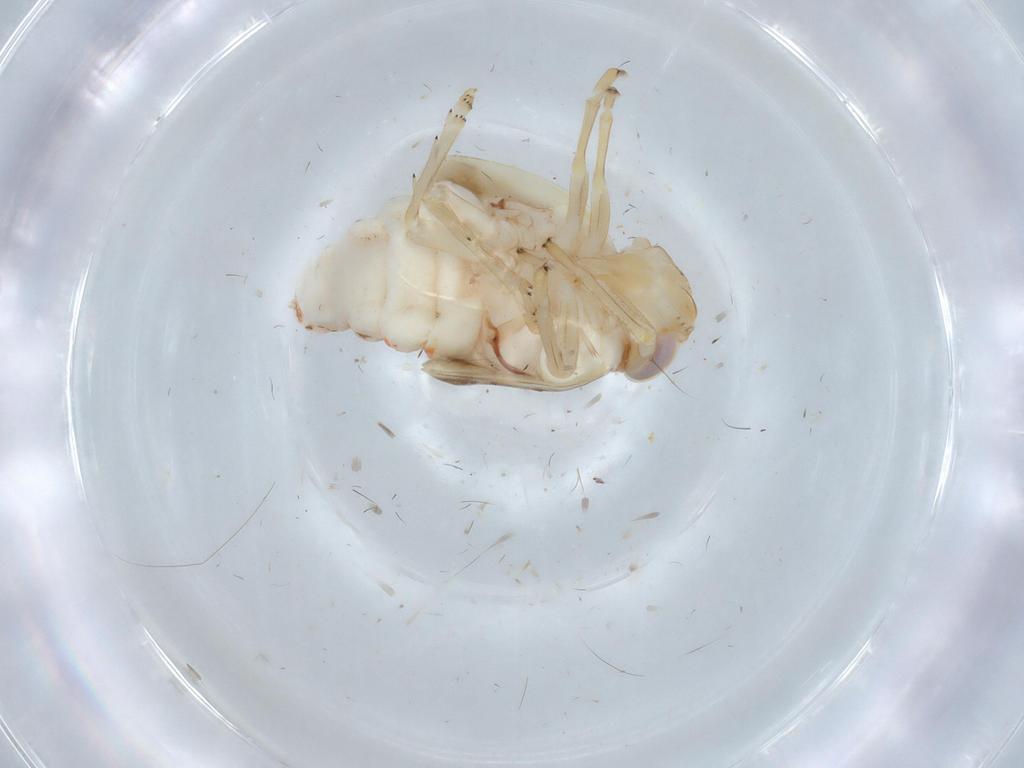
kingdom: Animalia
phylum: Arthropoda
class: Insecta
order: Hemiptera
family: Nogodinidae
